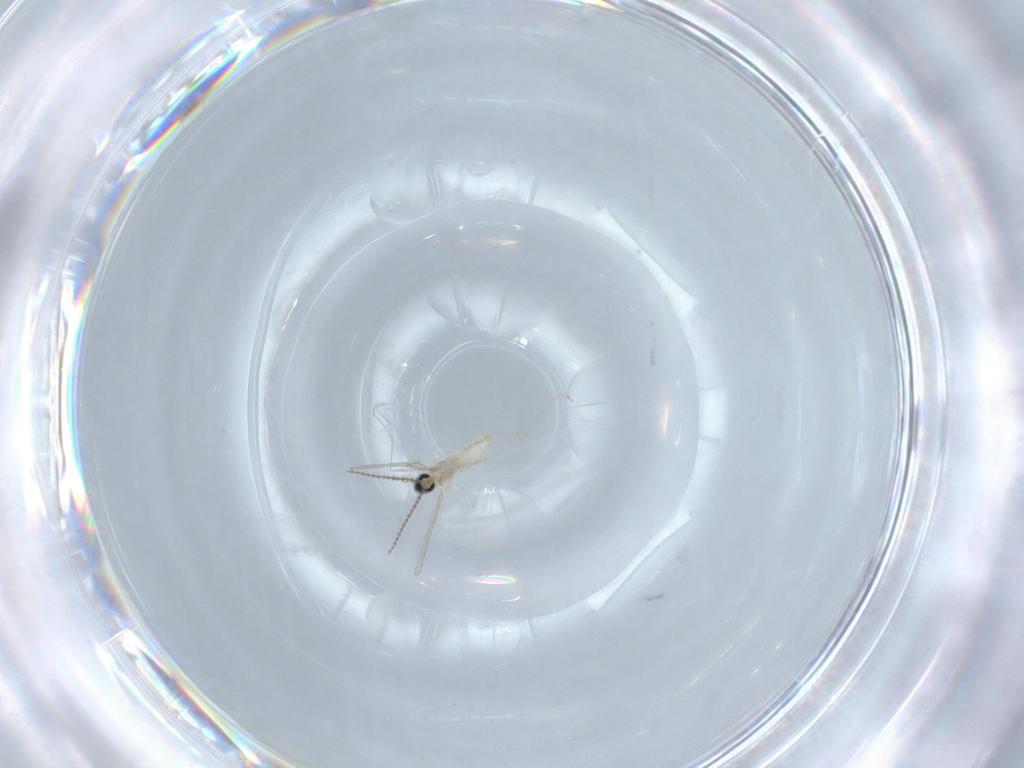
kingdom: Animalia
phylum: Arthropoda
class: Insecta
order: Diptera
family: Cecidomyiidae
